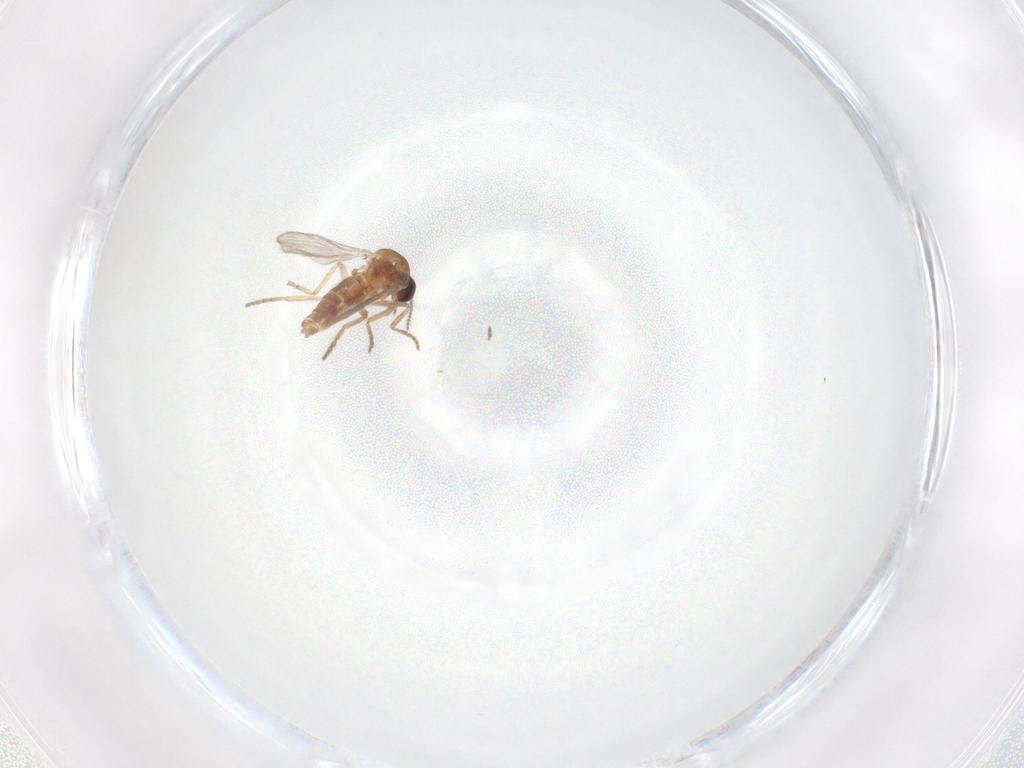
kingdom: Animalia
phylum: Arthropoda
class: Insecta
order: Diptera
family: Ceratopogonidae
